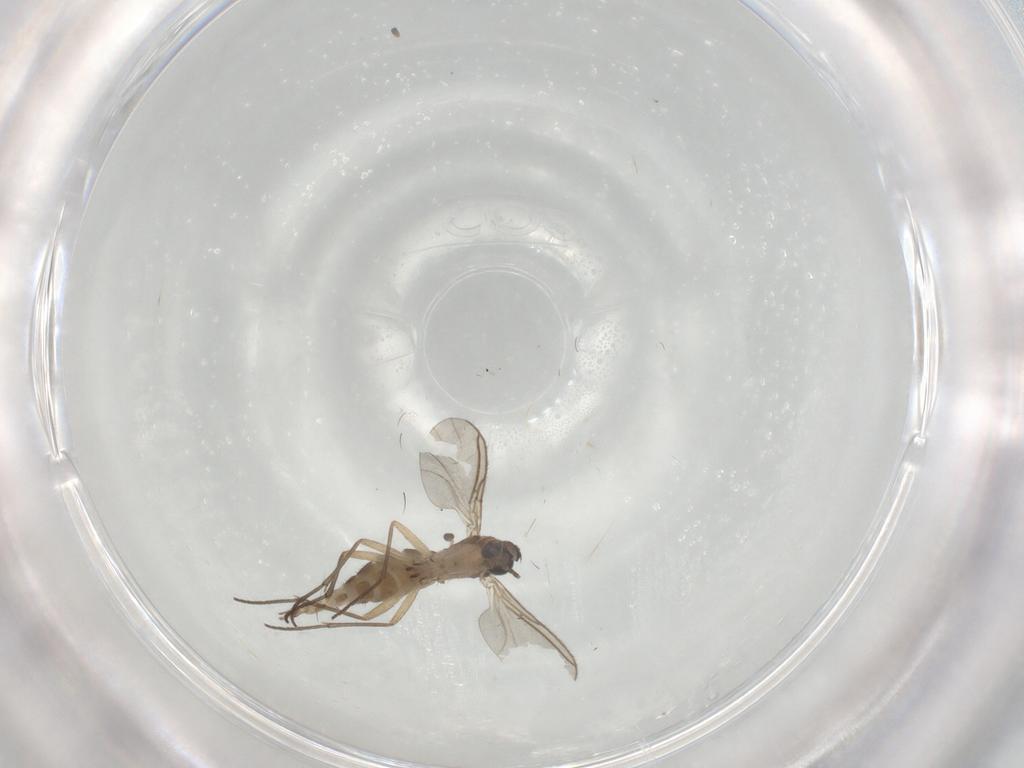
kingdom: Animalia
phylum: Arthropoda
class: Insecta
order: Diptera
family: Sciaridae
